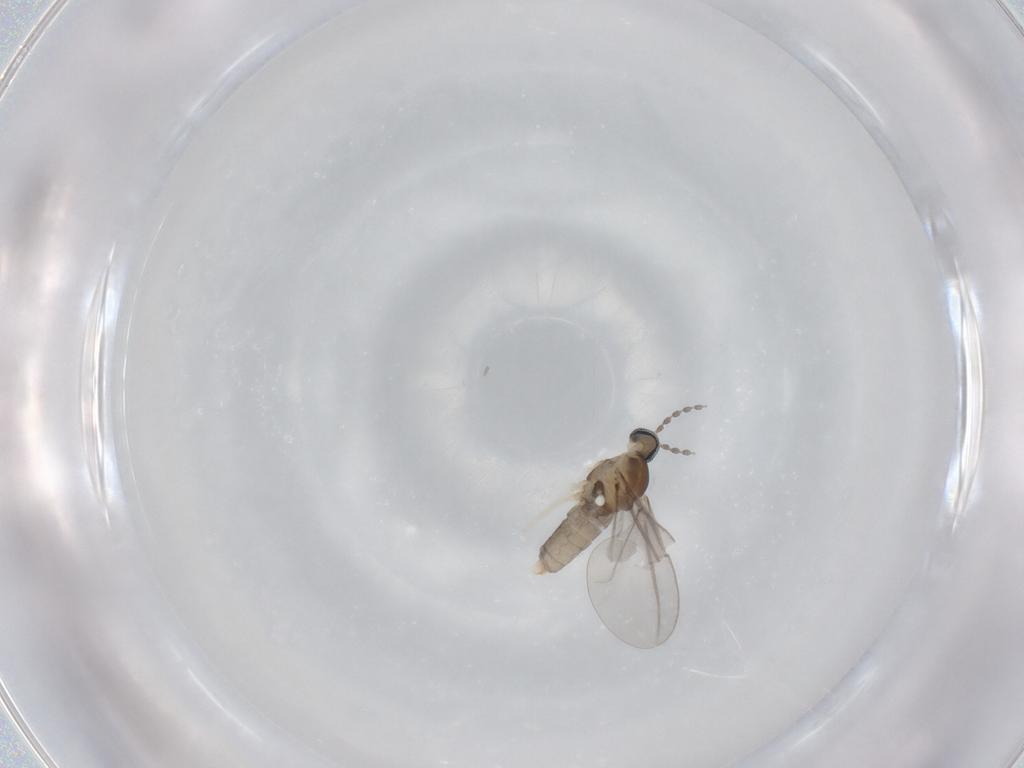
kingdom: Animalia
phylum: Arthropoda
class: Insecta
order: Diptera
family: Cecidomyiidae
